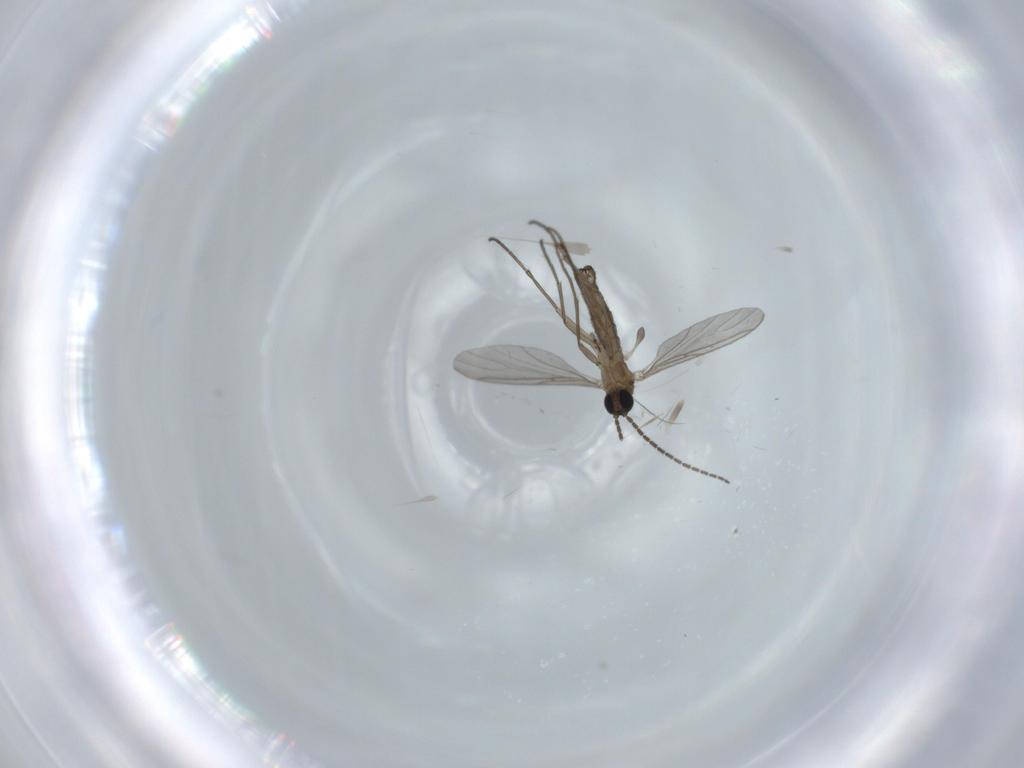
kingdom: Animalia
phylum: Arthropoda
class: Insecta
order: Diptera
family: Sciaridae
